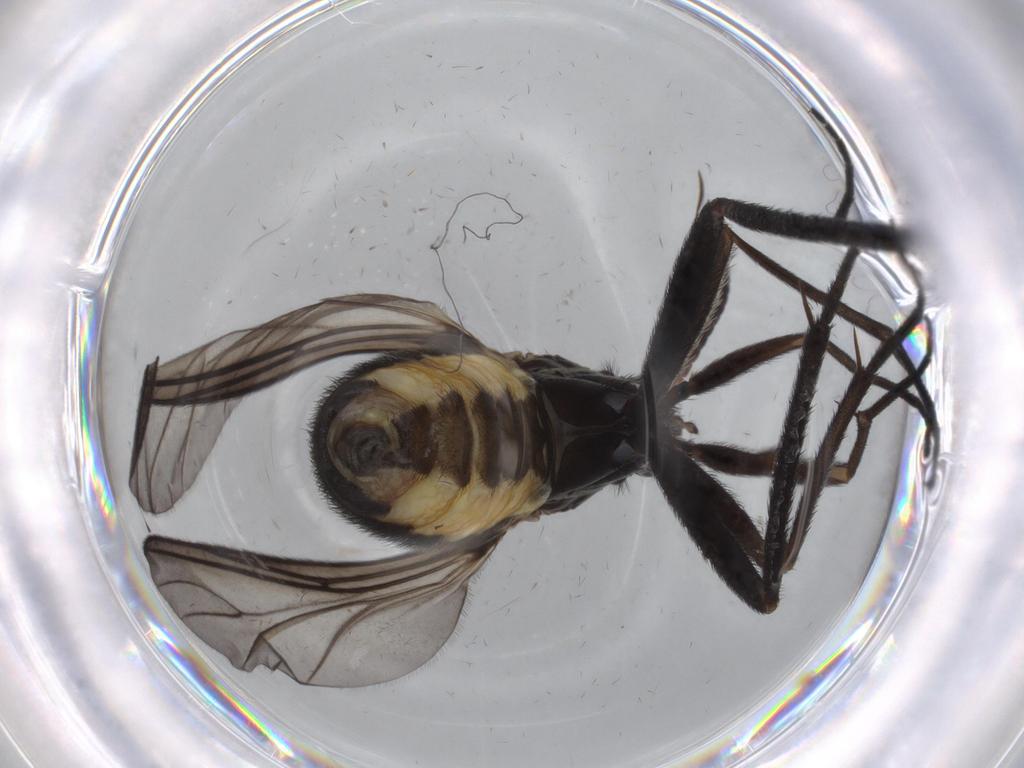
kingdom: Animalia
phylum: Arthropoda
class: Insecta
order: Diptera
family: Sciaridae
